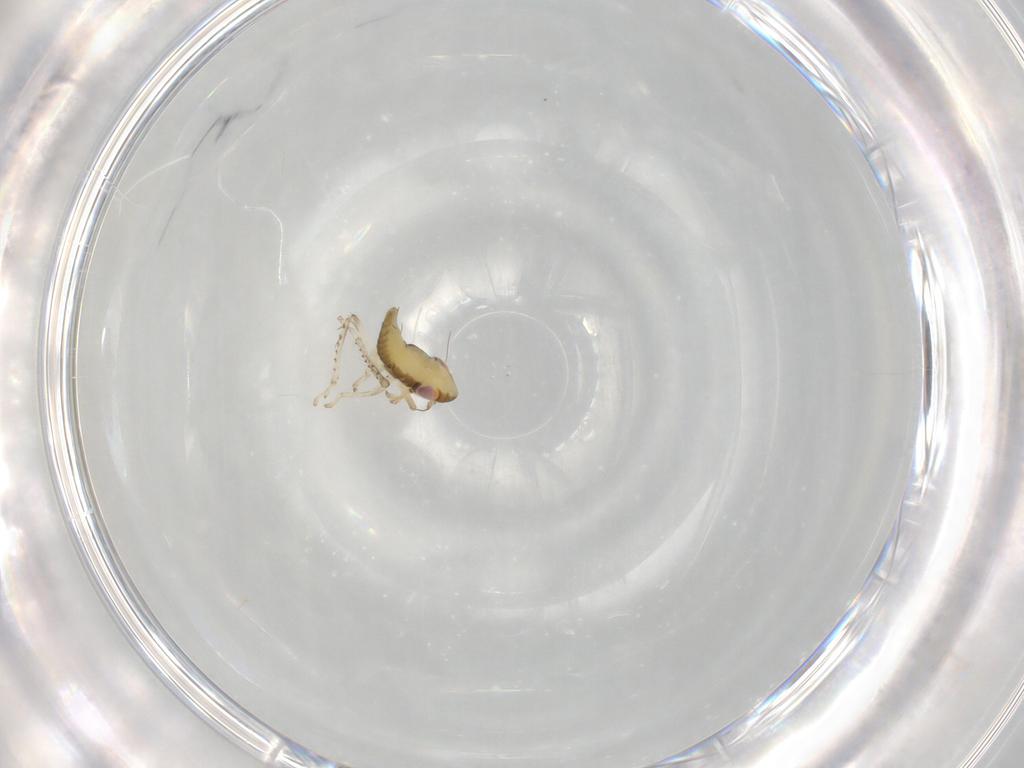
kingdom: Animalia
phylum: Arthropoda
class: Insecta
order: Hemiptera
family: Cicadellidae
